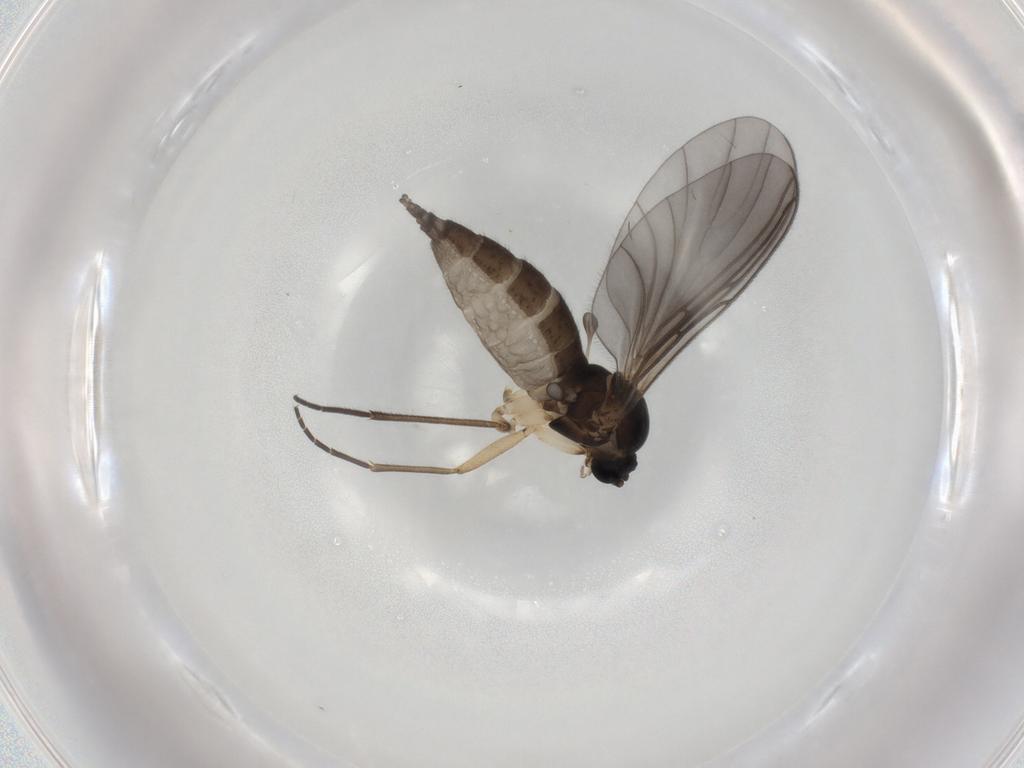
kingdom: Animalia
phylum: Arthropoda
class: Insecta
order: Diptera
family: Sciaridae
